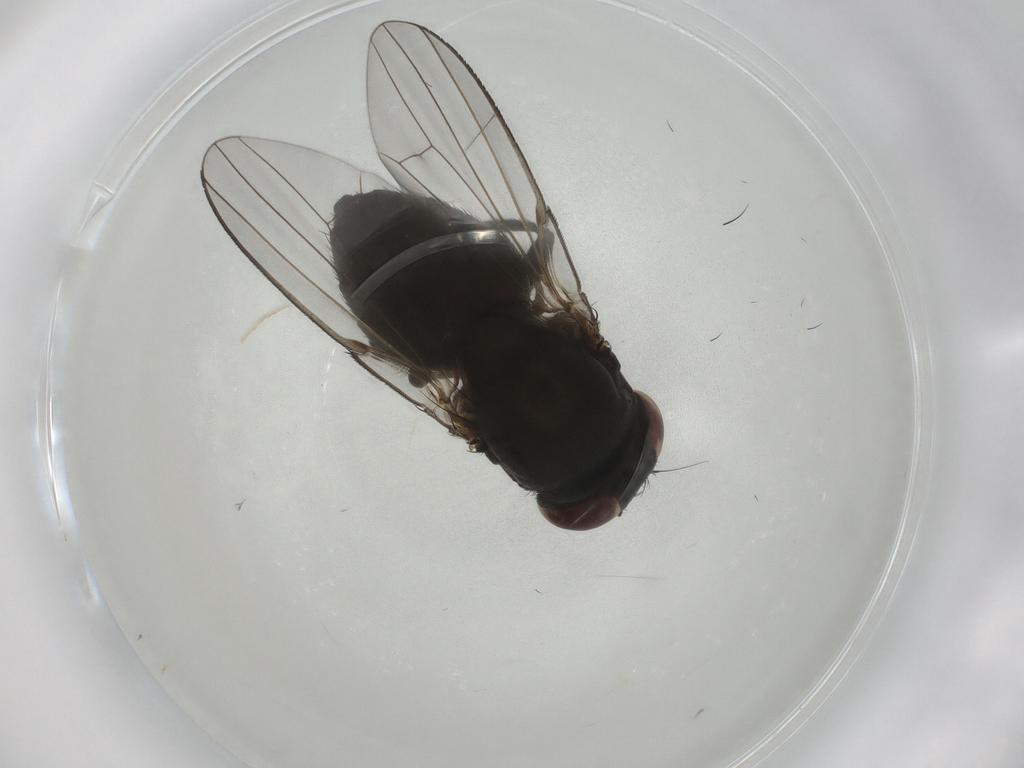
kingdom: Animalia
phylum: Arthropoda
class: Insecta
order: Diptera
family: Milichiidae
